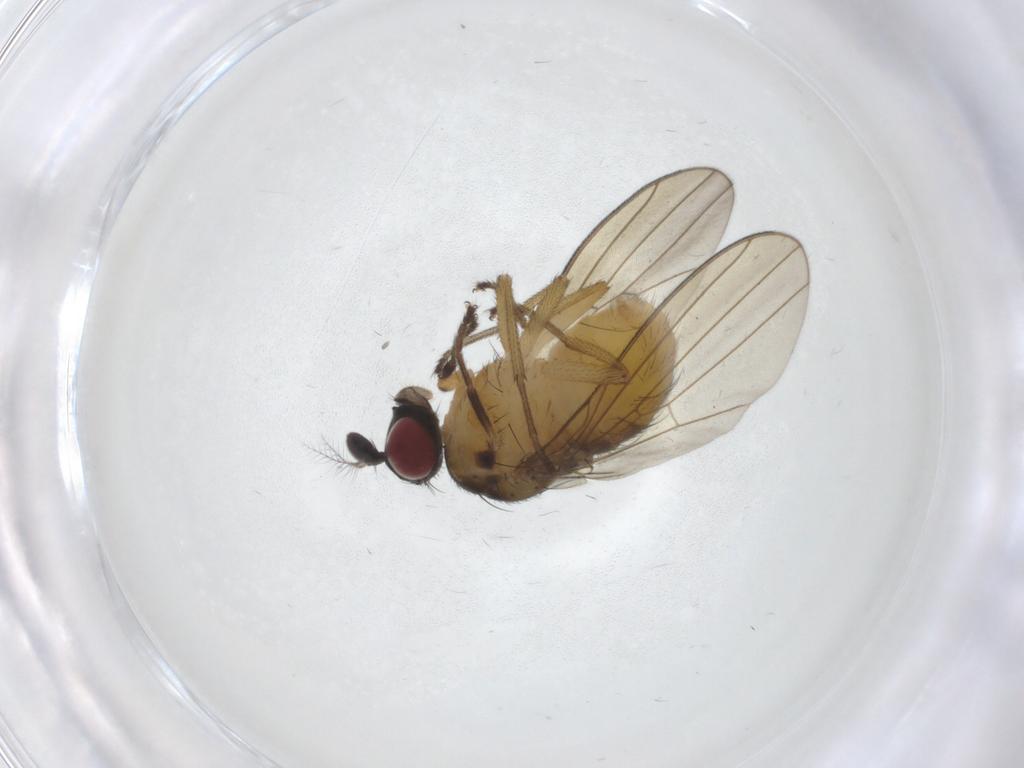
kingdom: Animalia
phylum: Arthropoda
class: Insecta
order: Diptera
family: Lauxaniidae
